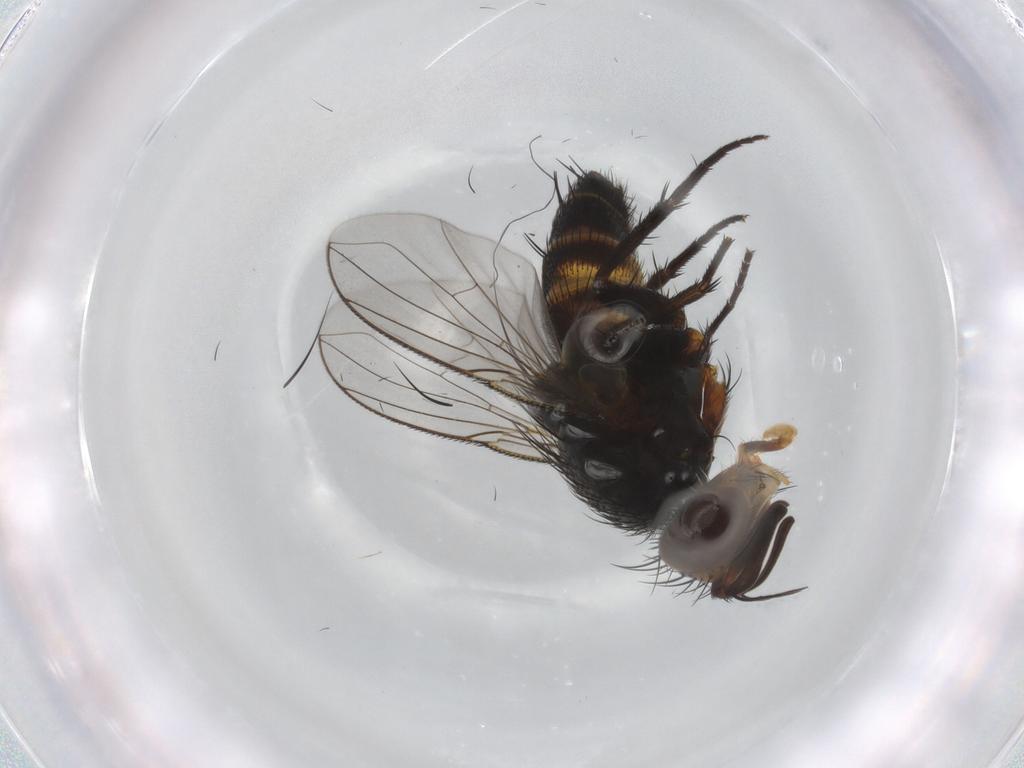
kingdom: Animalia
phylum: Arthropoda
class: Insecta
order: Diptera
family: Tachinidae
